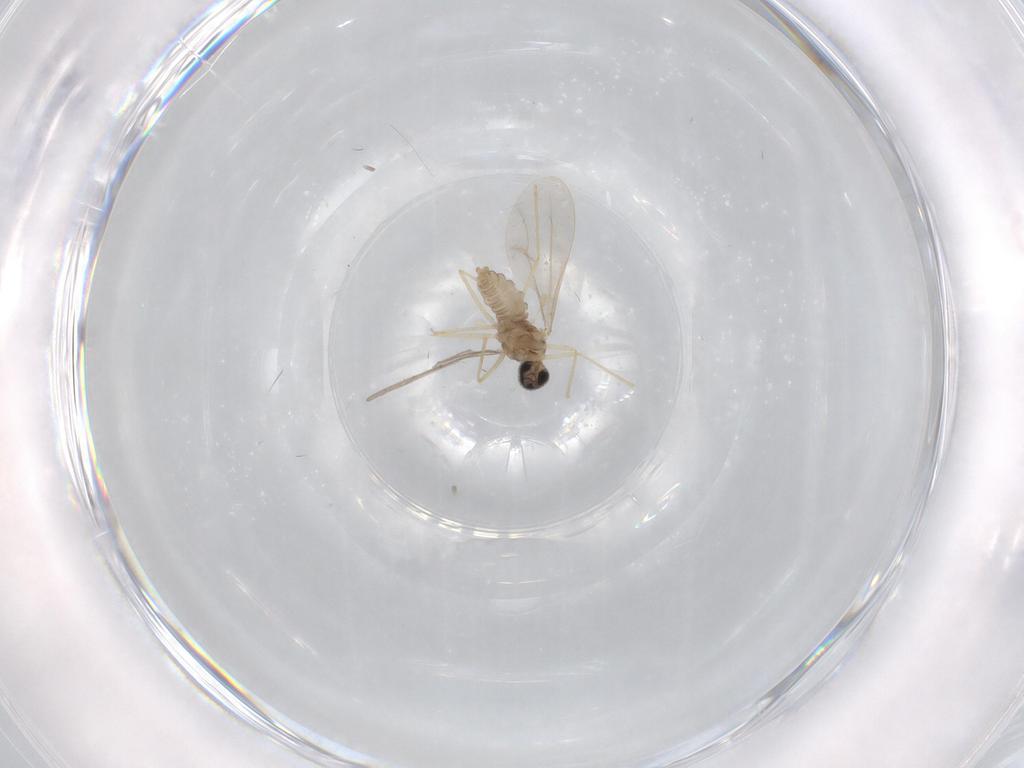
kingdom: Animalia
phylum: Arthropoda
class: Insecta
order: Diptera
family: Cecidomyiidae
